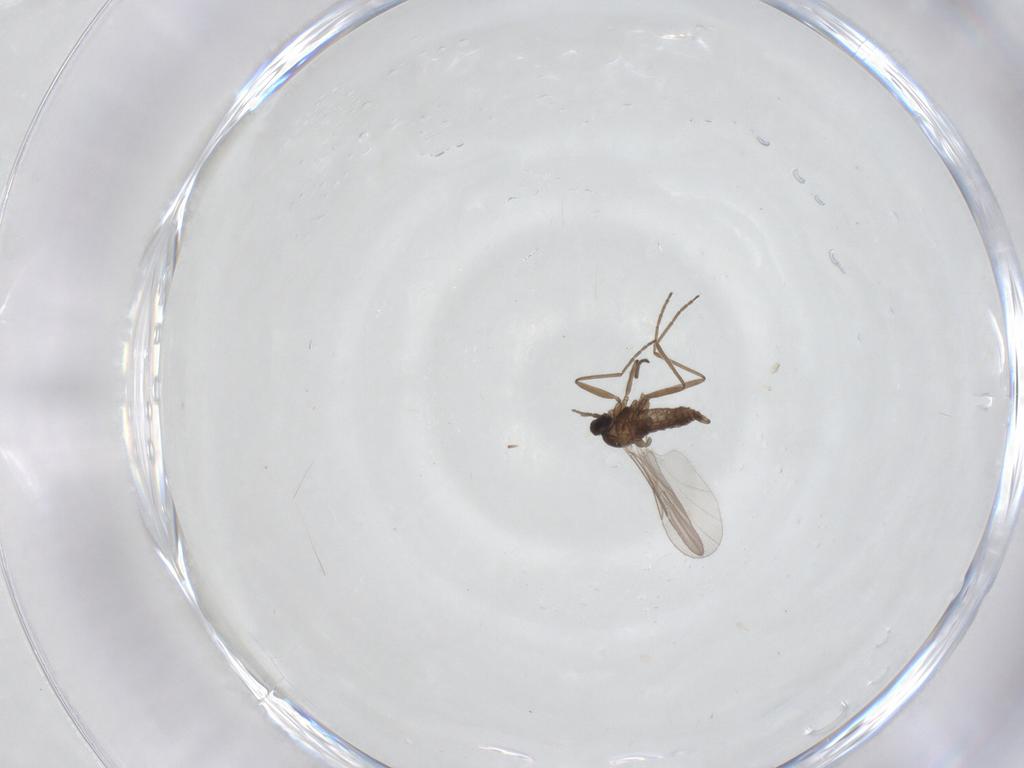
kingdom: Animalia
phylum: Arthropoda
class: Insecta
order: Diptera
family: Cecidomyiidae
